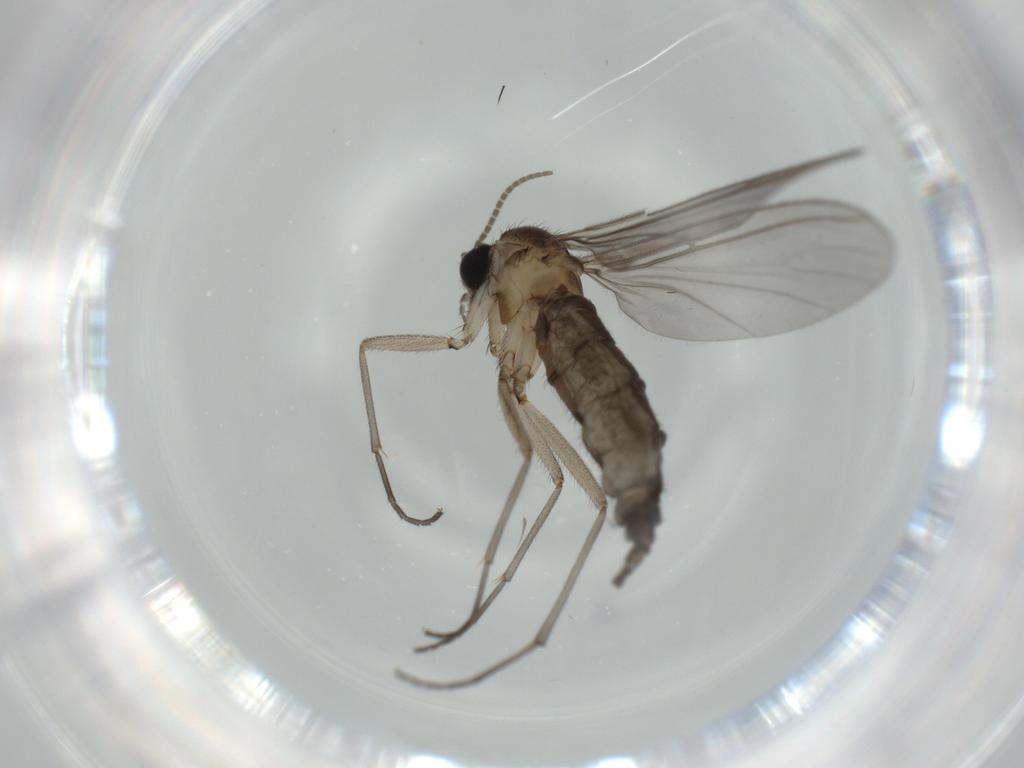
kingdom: Animalia
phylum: Arthropoda
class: Insecta
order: Diptera
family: Sciaridae
